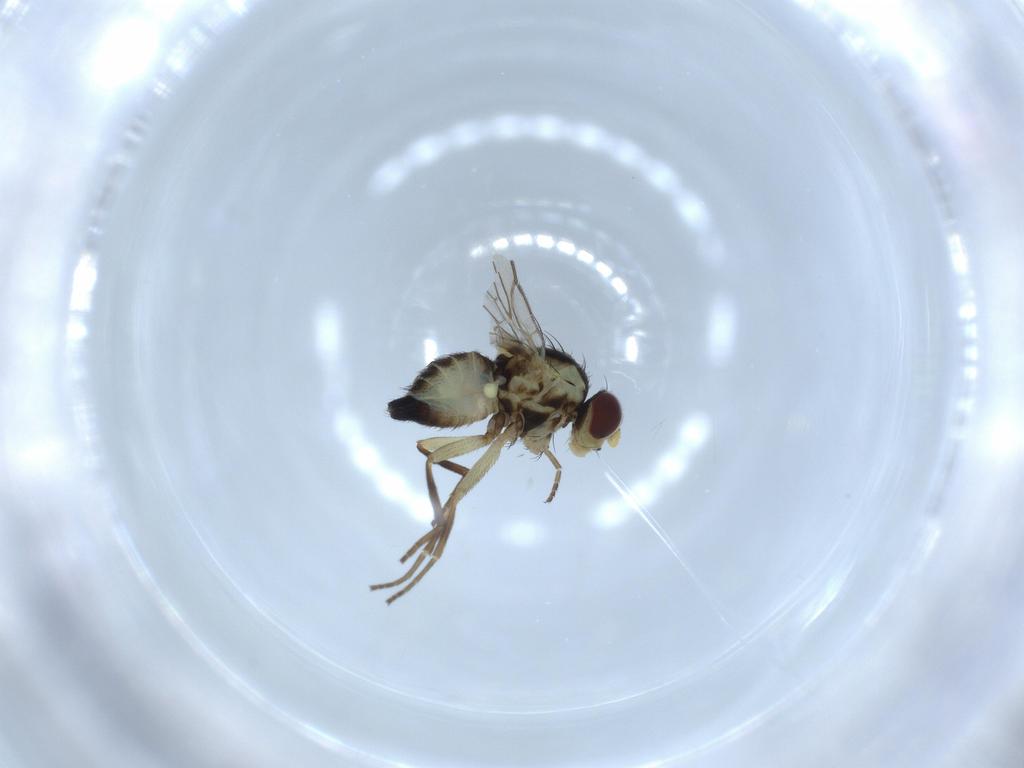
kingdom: Animalia
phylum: Arthropoda
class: Insecta
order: Diptera
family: Agromyzidae
